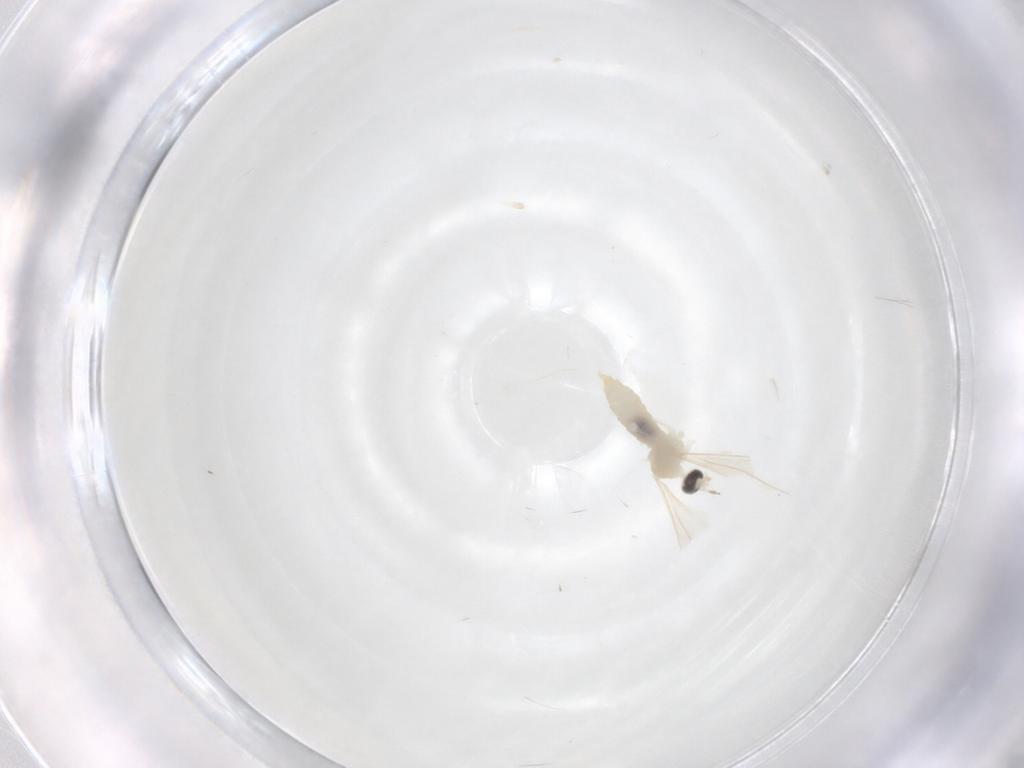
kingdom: Animalia
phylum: Arthropoda
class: Insecta
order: Diptera
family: Cecidomyiidae
